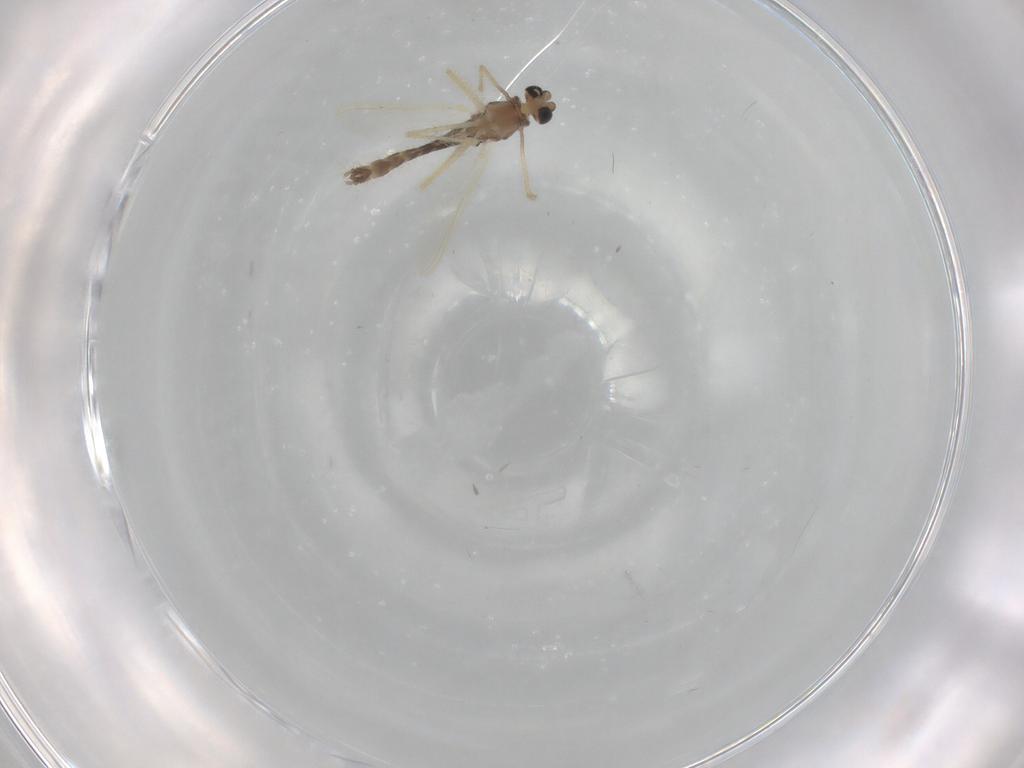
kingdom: Animalia
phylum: Arthropoda
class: Insecta
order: Diptera
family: Chironomidae
